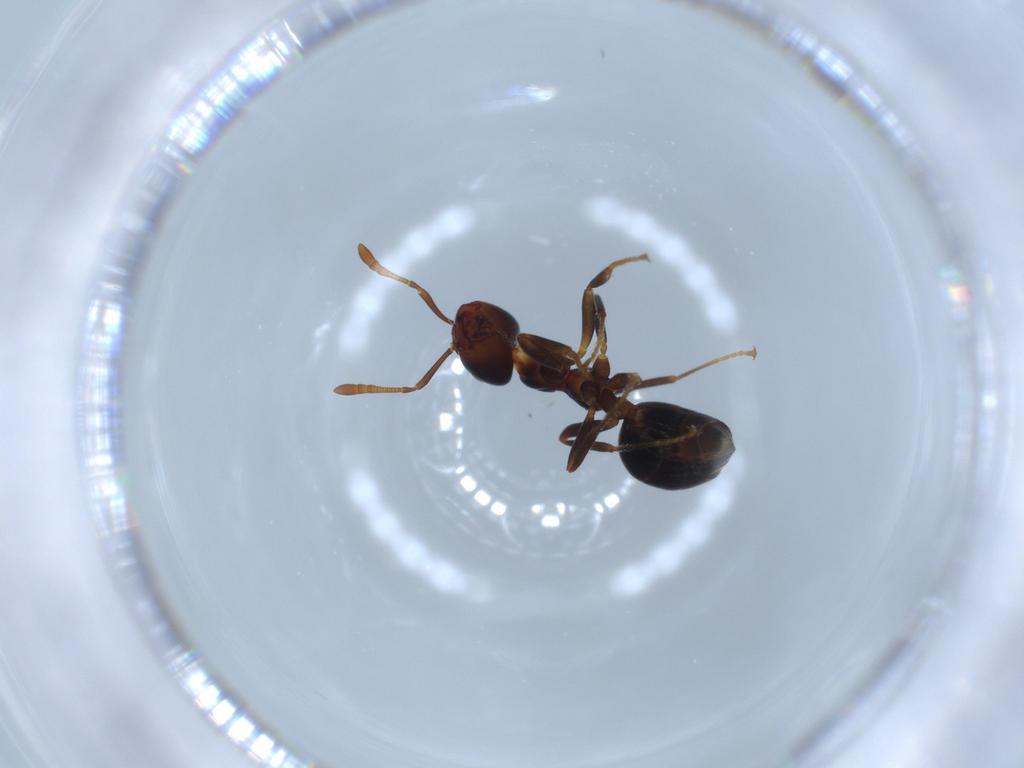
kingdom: Animalia
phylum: Arthropoda
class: Insecta
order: Hymenoptera
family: Formicidae
